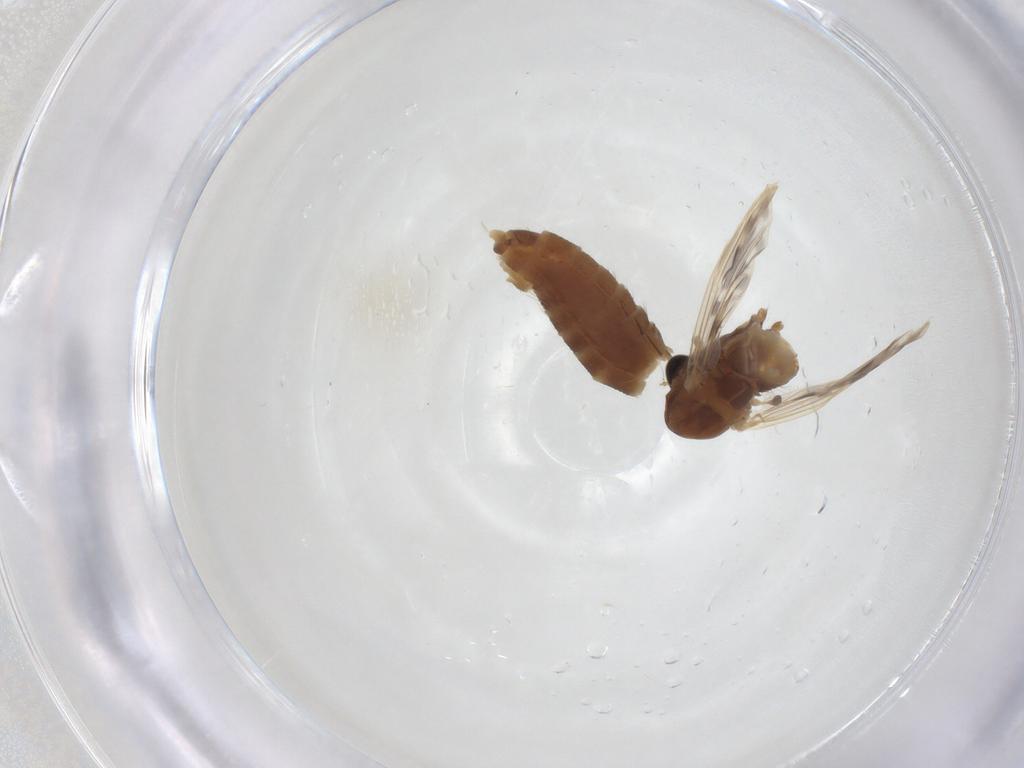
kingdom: Animalia
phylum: Arthropoda
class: Insecta
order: Diptera
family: Chironomidae
